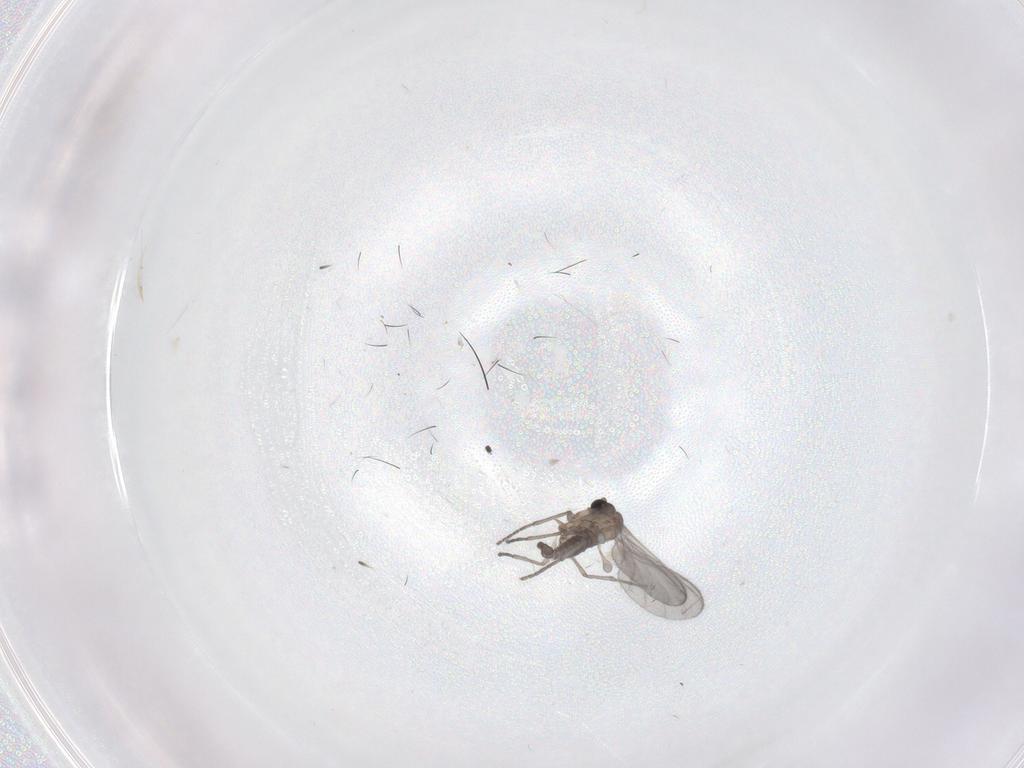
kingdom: Animalia
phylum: Arthropoda
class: Insecta
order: Diptera
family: Sciaridae
